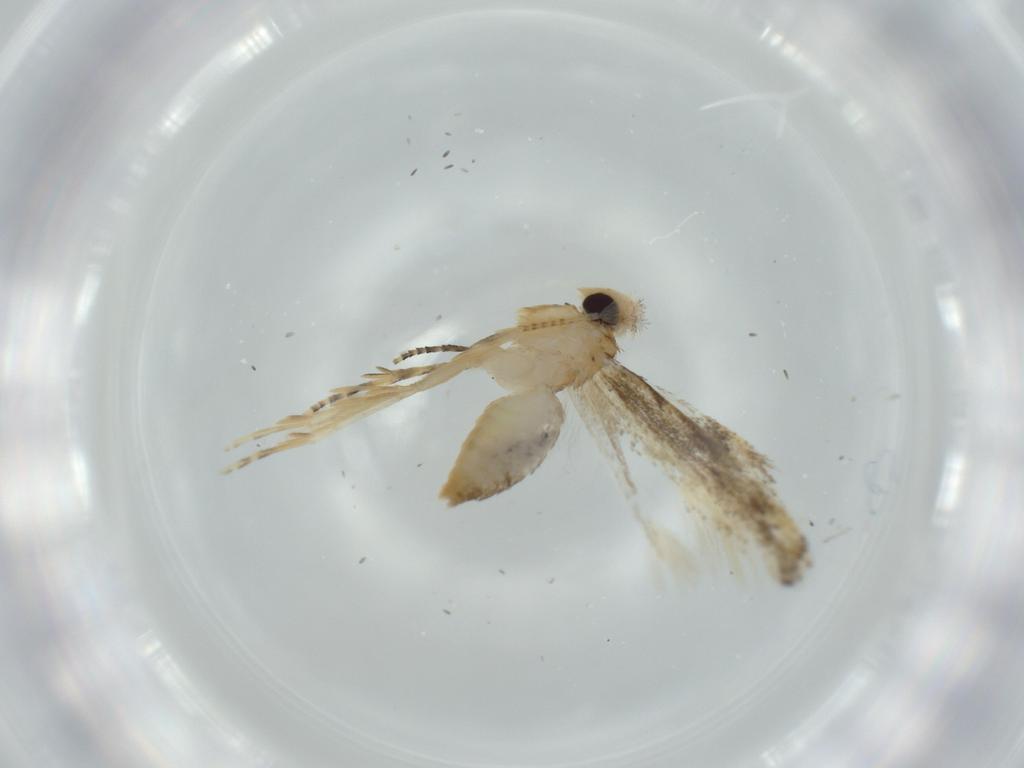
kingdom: Animalia
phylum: Arthropoda
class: Insecta
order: Lepidoptera
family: Bucculatricidae
